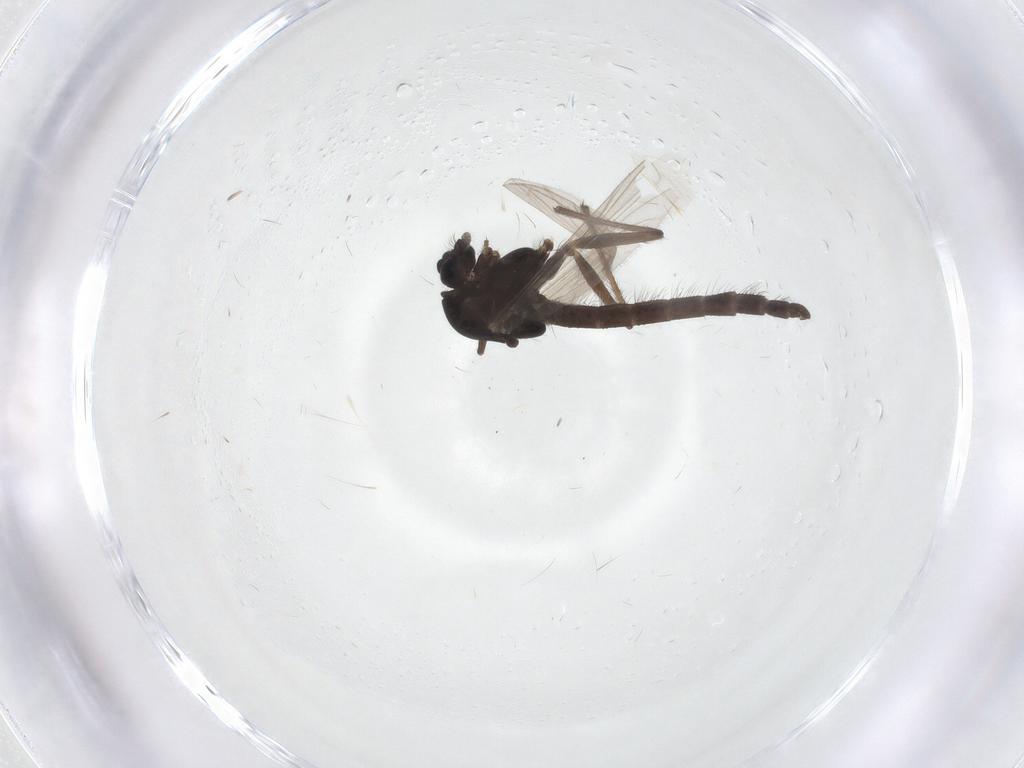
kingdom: Animalia
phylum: Arthropoda
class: Insecta
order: Diptera
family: Chironomidae
